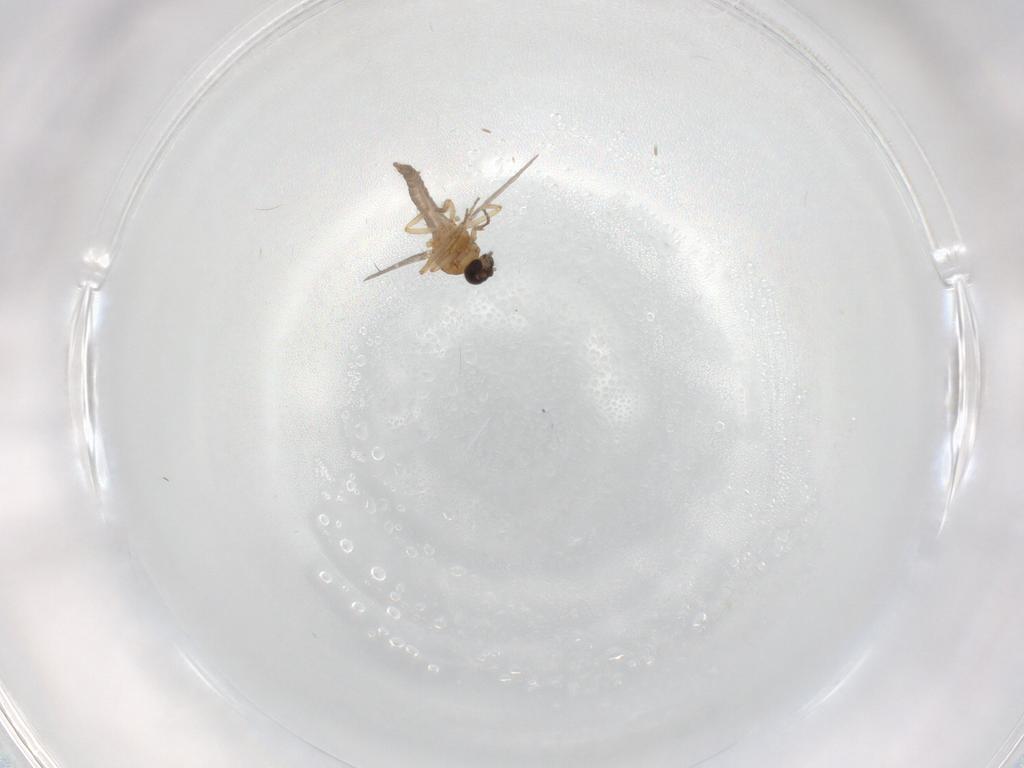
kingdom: Animalia
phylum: Arthropoda
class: Insecta
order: Diptera
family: Ceratopogonidae
